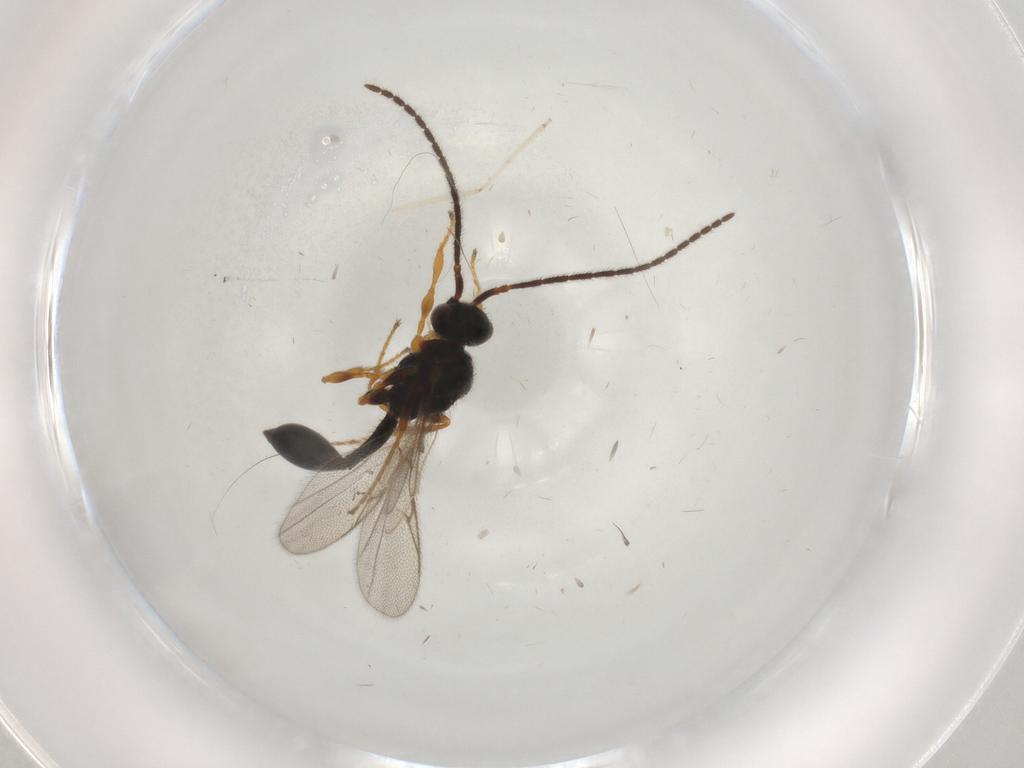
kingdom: Animalia
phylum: Arthropoda
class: Insecta
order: Hymenoptera
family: Diapriidae
